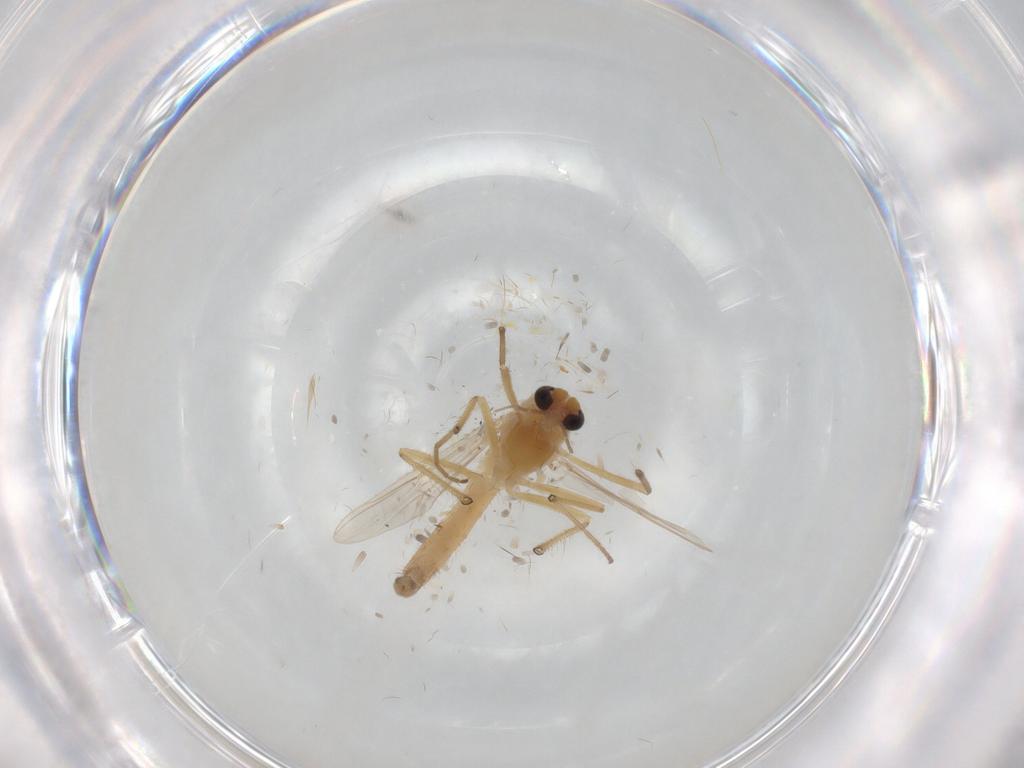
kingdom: Animalia
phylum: Arthropoda
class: Insecta
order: Diptera
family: Chironomidae
